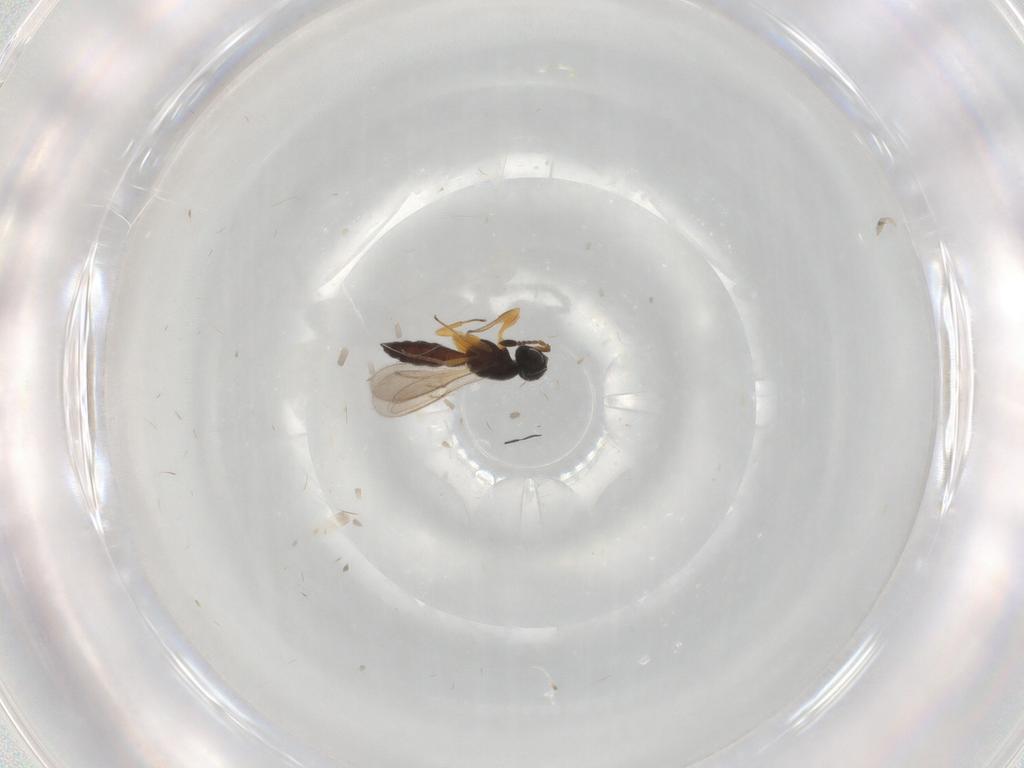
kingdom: Animalia
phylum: Arthropoda
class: Insecta
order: Hymenoptera
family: Scelionidae
